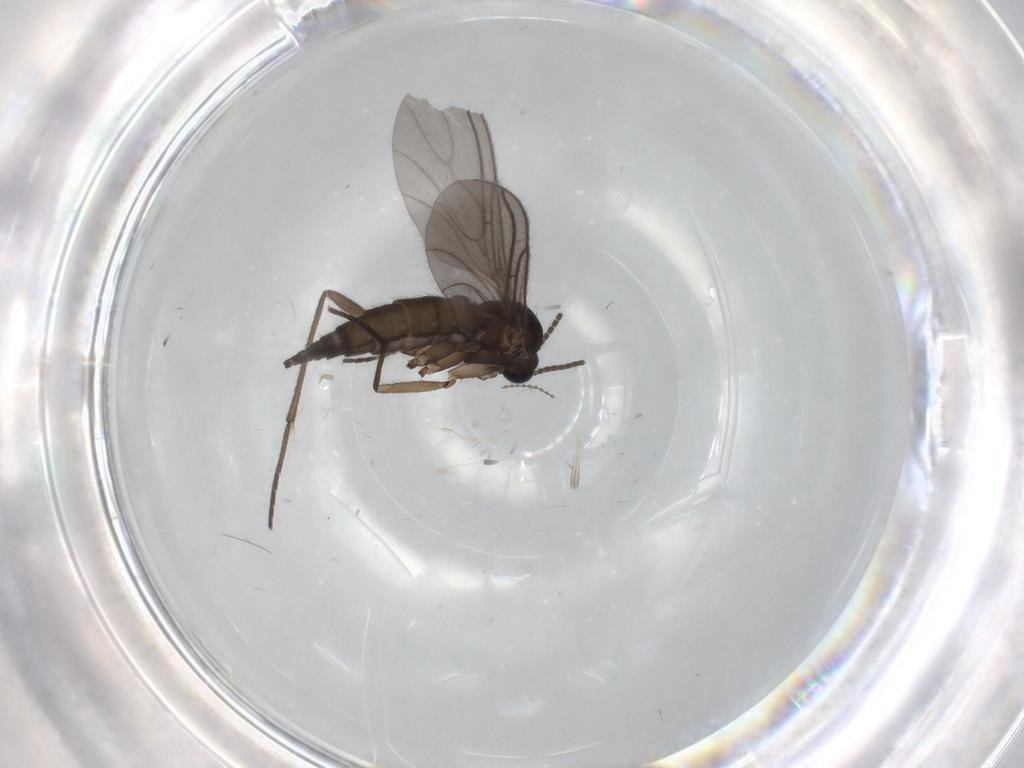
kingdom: Animalia
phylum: Arthropoda
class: Insecta
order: Diptera
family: Sciaridae
